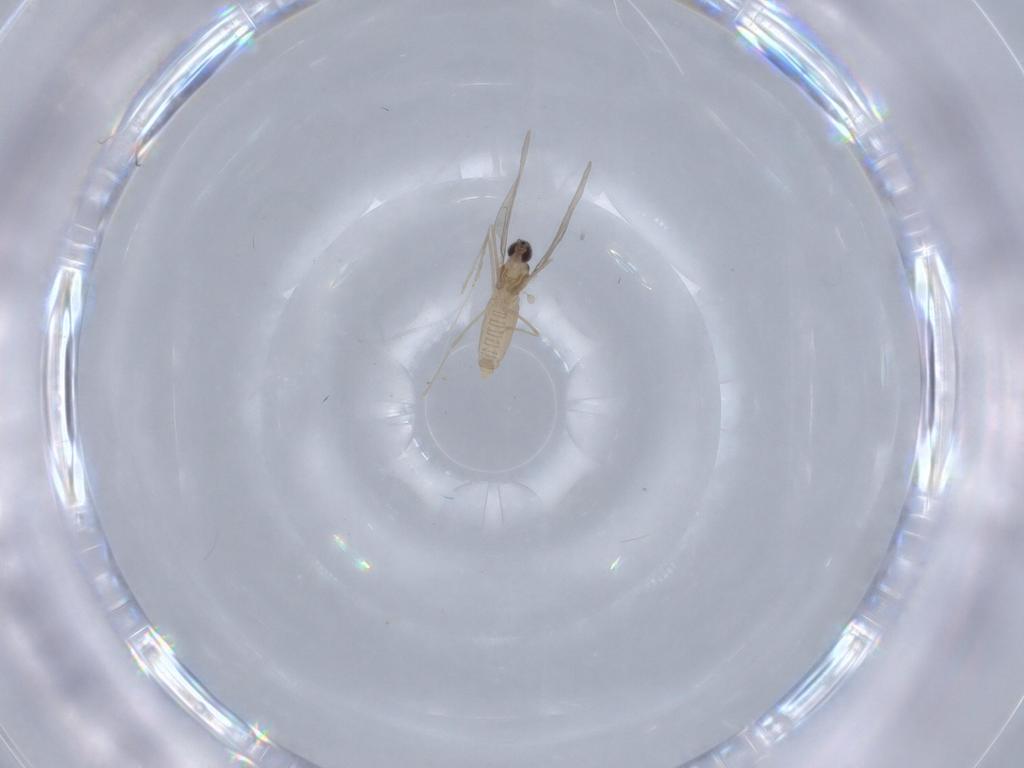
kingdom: Animalia
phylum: Arthropoda
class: Insecta
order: Diptera
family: Cecidomyiidae
